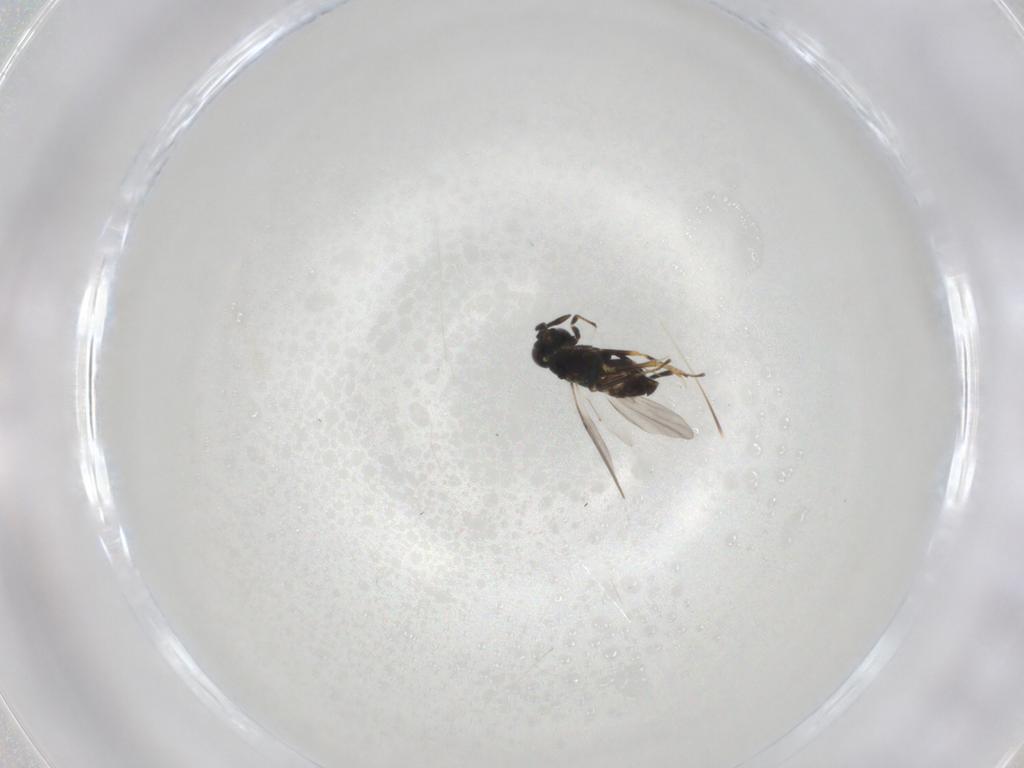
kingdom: Animalia
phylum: Arthropoda
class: Insecta
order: Hymenoptera
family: Encyrtidae
